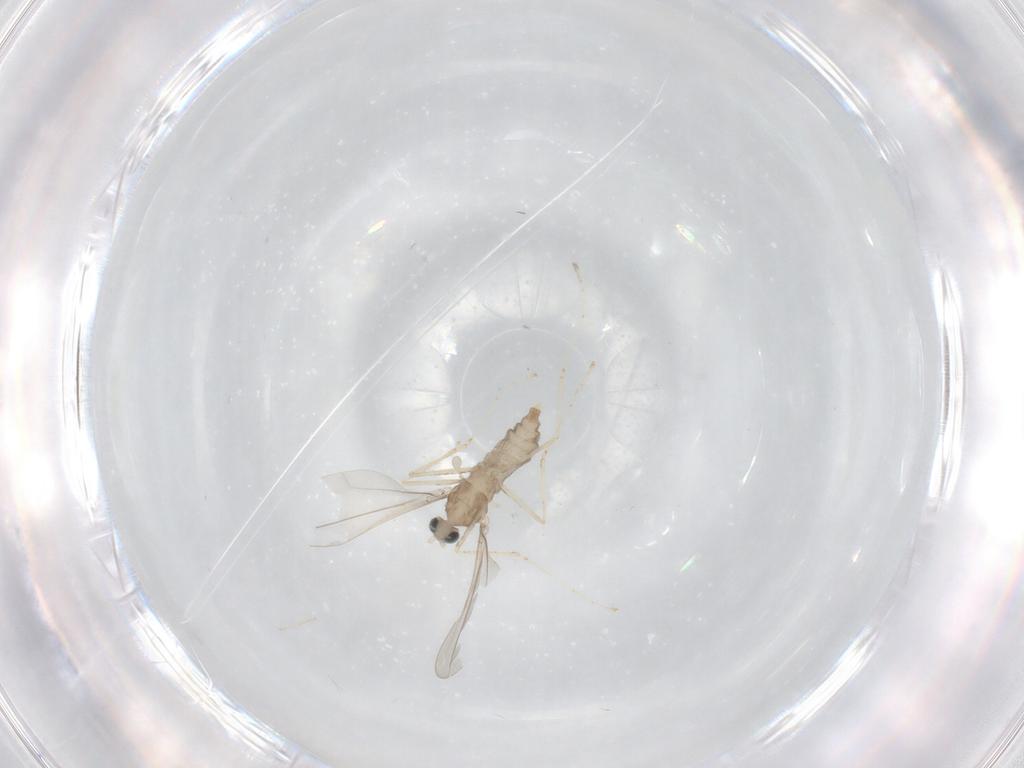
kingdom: Animalia
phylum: Arthropoda
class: Insecta
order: Diptera
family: Cecidomyiidae
